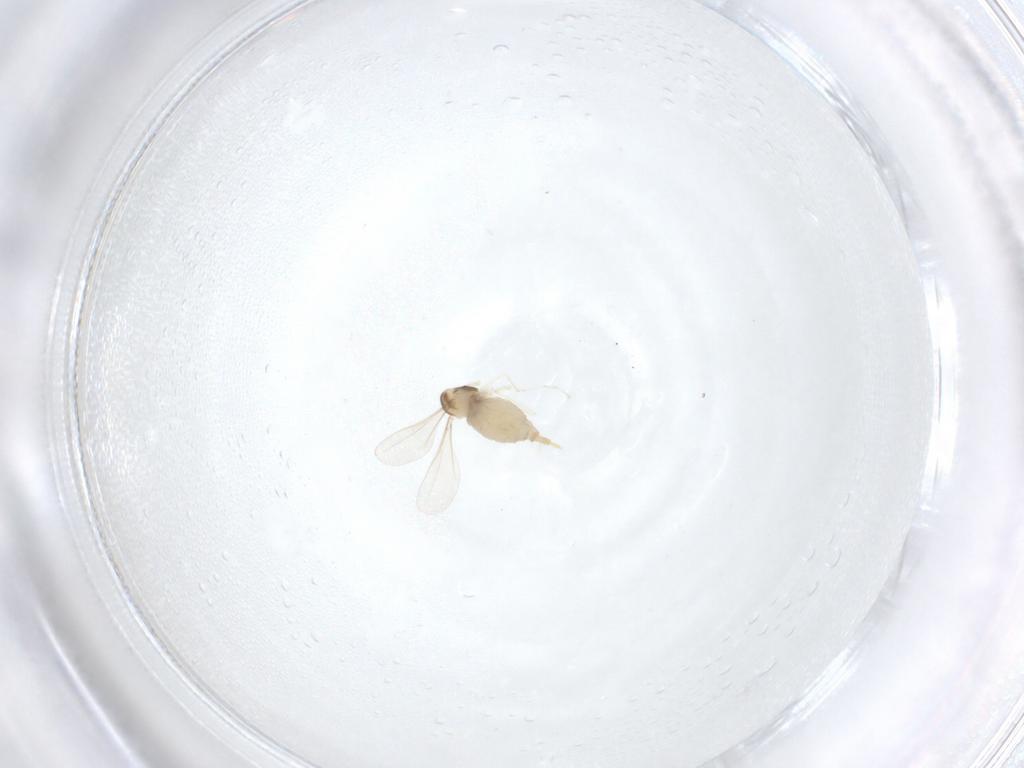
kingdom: Animalia
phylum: Arthropoda
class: Insecta
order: Diptera
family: Cecidomyiidae
